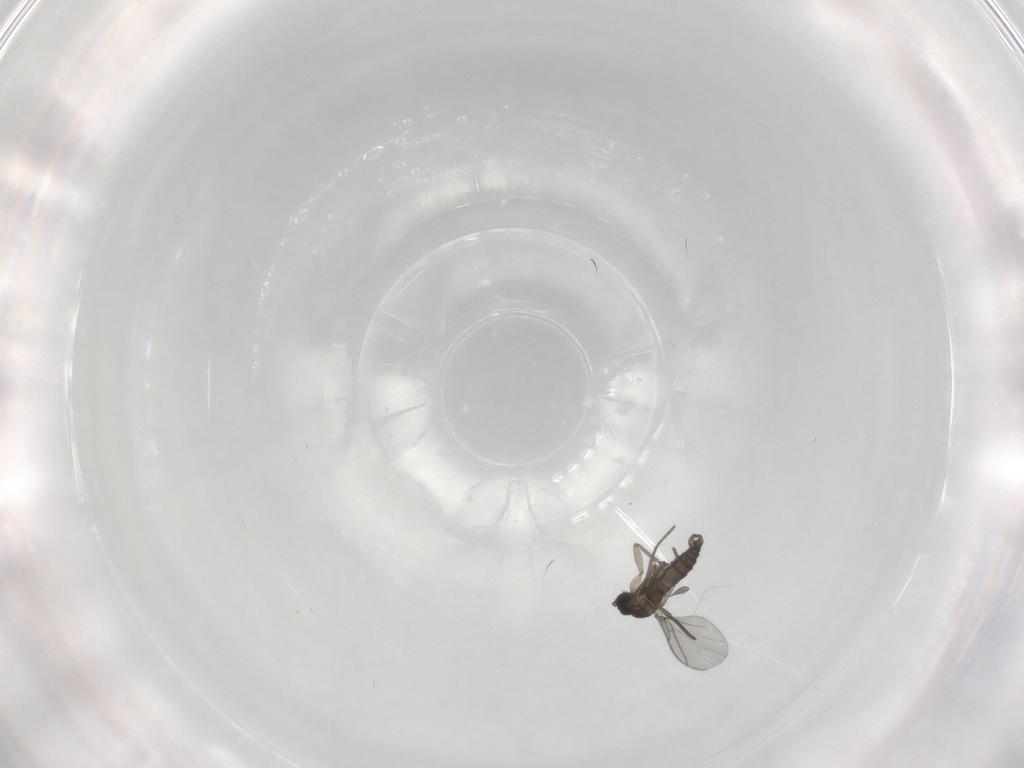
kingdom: Animalia
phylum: Arthropoda
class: Insecta
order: Diptera
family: Sciaridae
